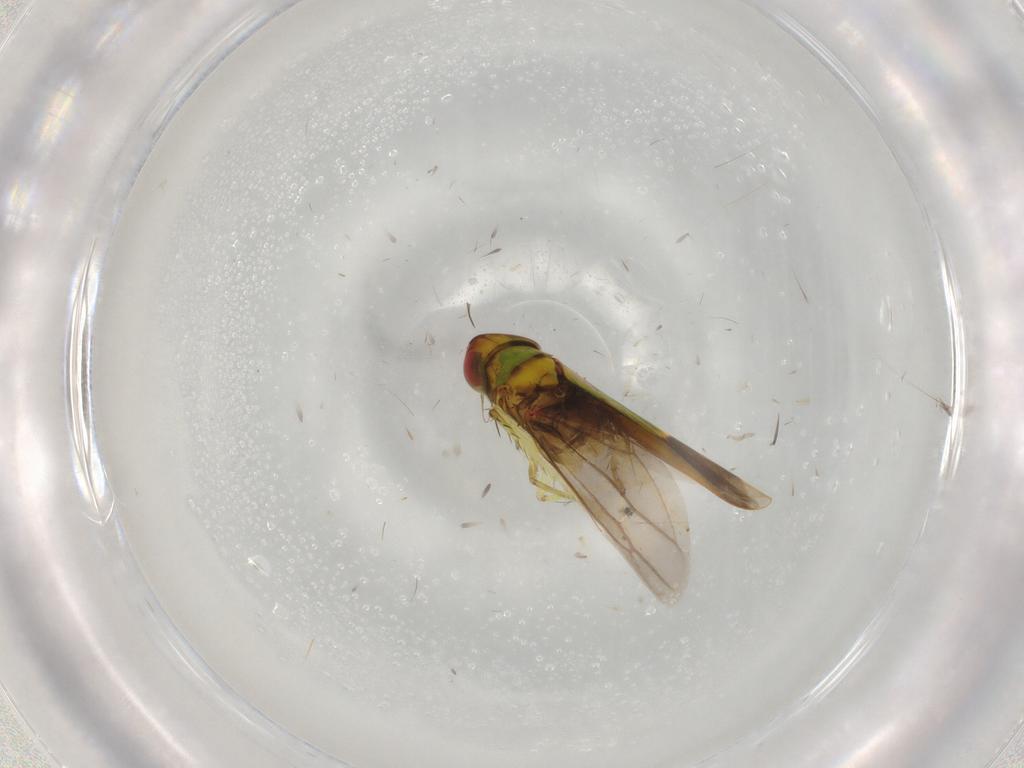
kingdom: Animalia
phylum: Arthropoda
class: Insecta
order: Hemiptera
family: Cicadellidae
